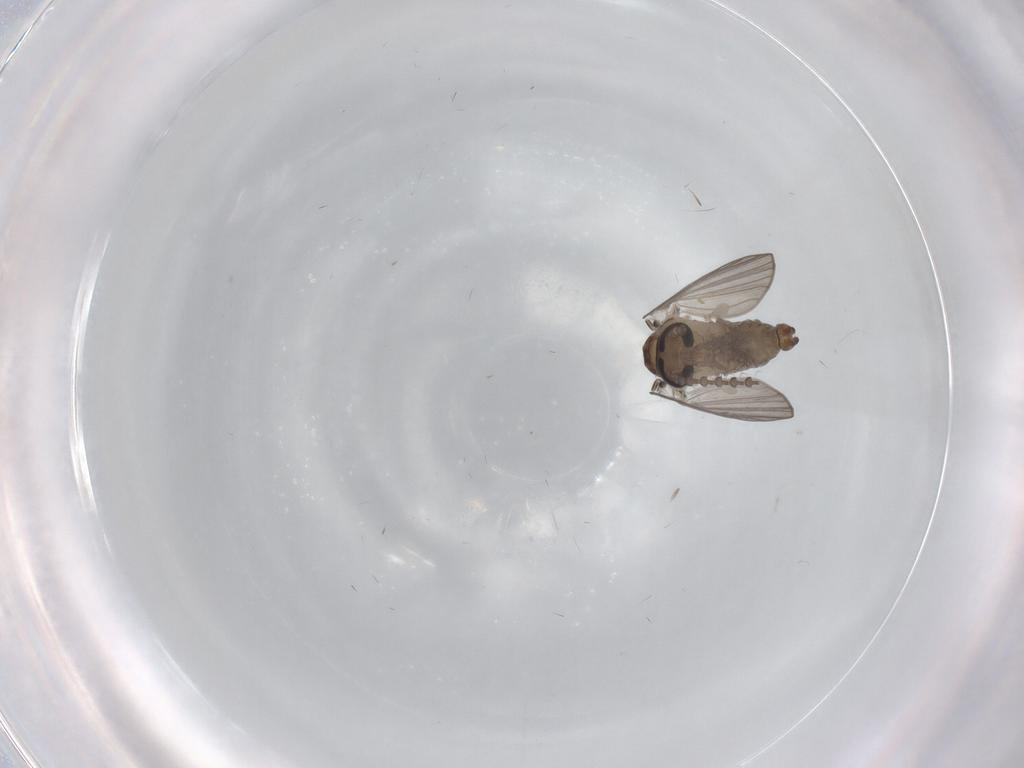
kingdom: Animalia
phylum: Arthropoda
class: Insecta
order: Diptera
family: Psychodidae
